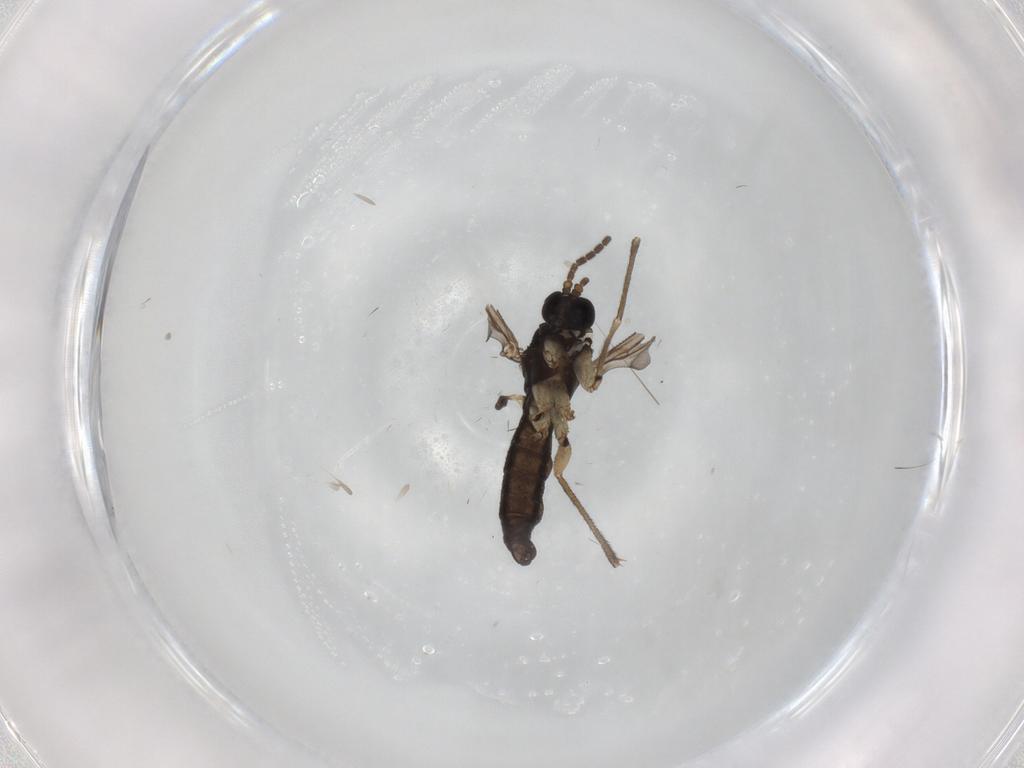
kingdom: Animalia
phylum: Arthropoda
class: Insecta
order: Diptera
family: Sciaridae
